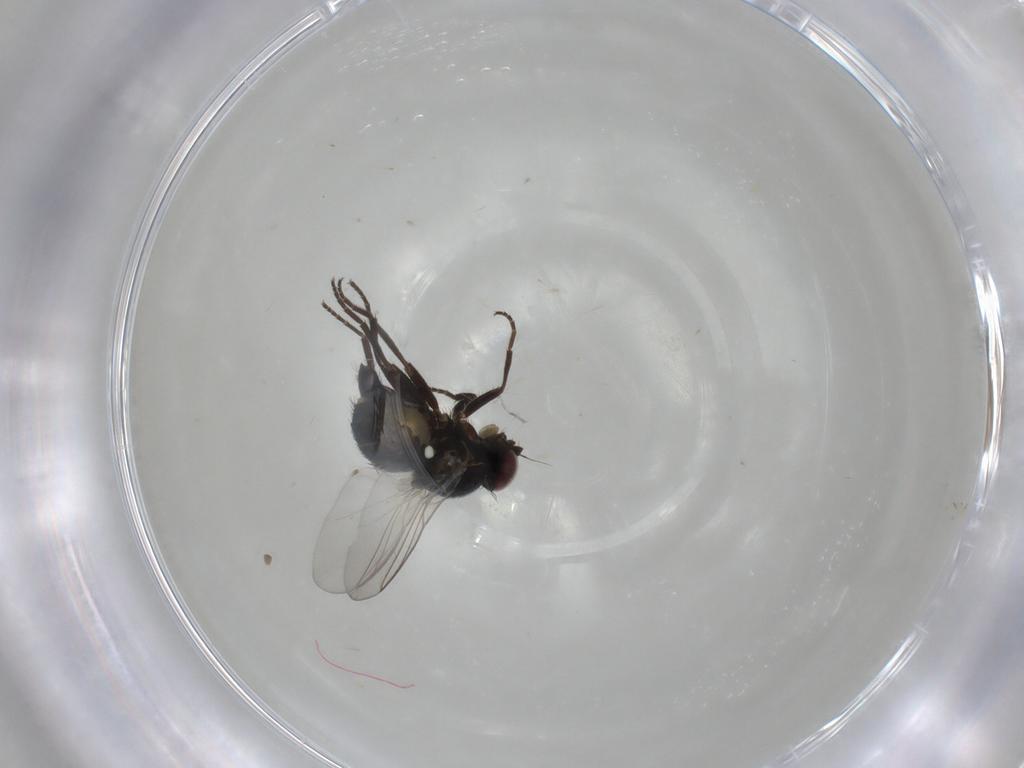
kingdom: Animalia
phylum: Arthropoda
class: Insecta
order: Diptera
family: Agromyzidae
